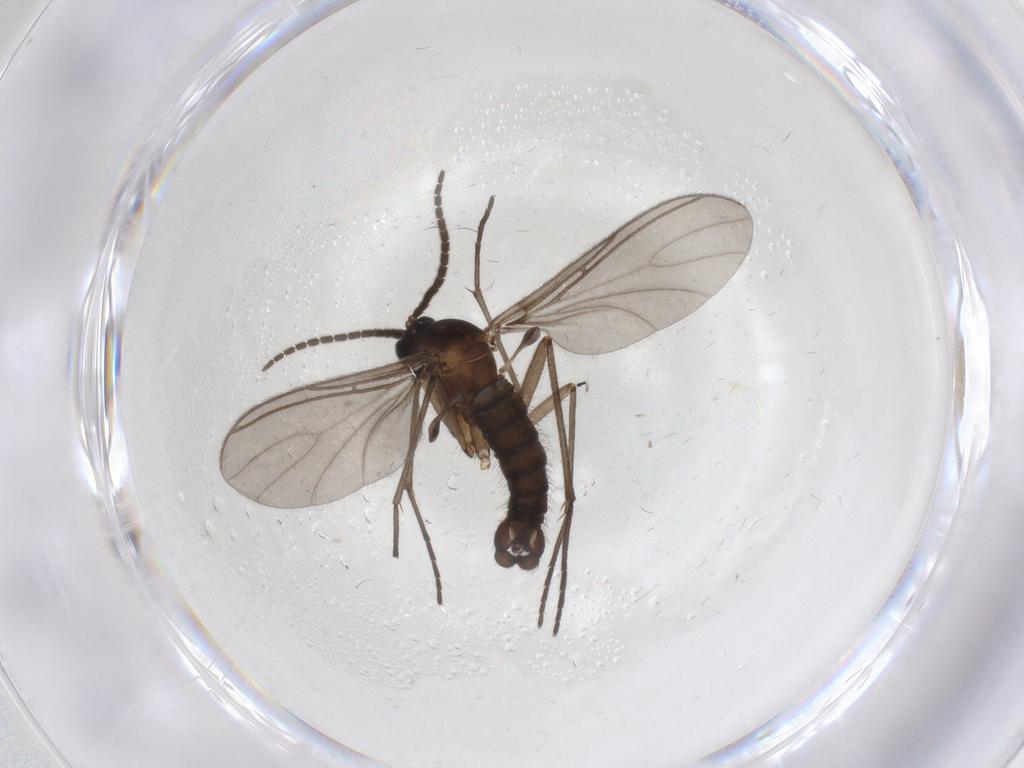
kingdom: Animalia
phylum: Arthropoda
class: Insecta
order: Diptera
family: Sciaridae
